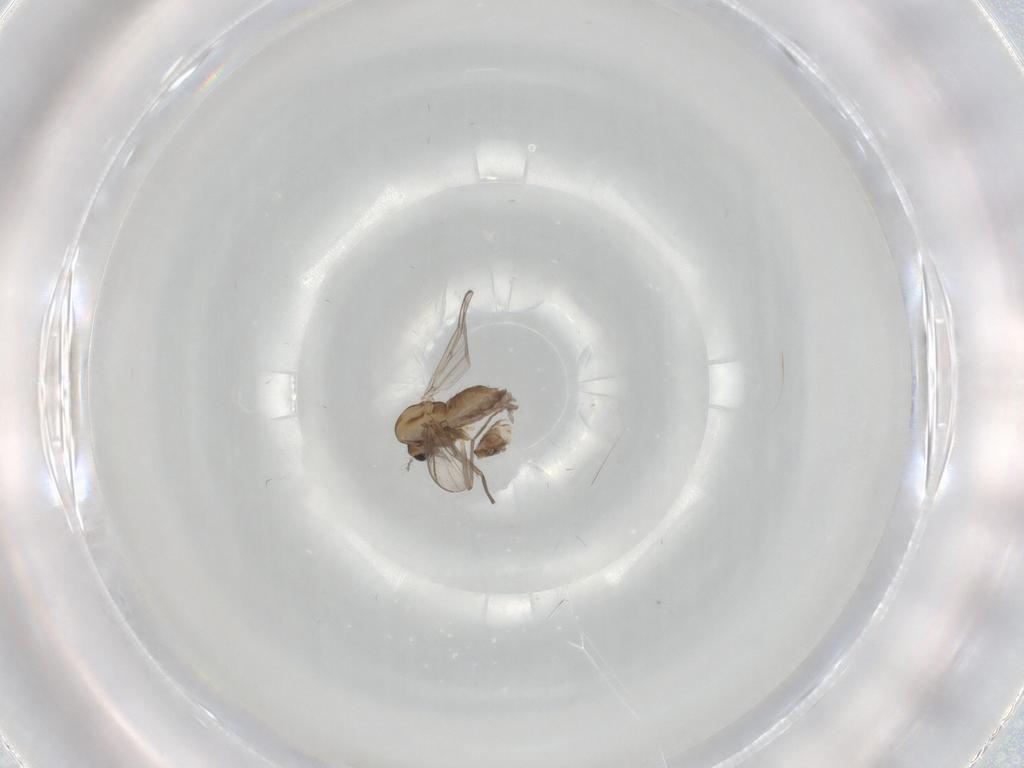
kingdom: Animalia
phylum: Arthropoda
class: Insecta
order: Diptera
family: Chironomidae
